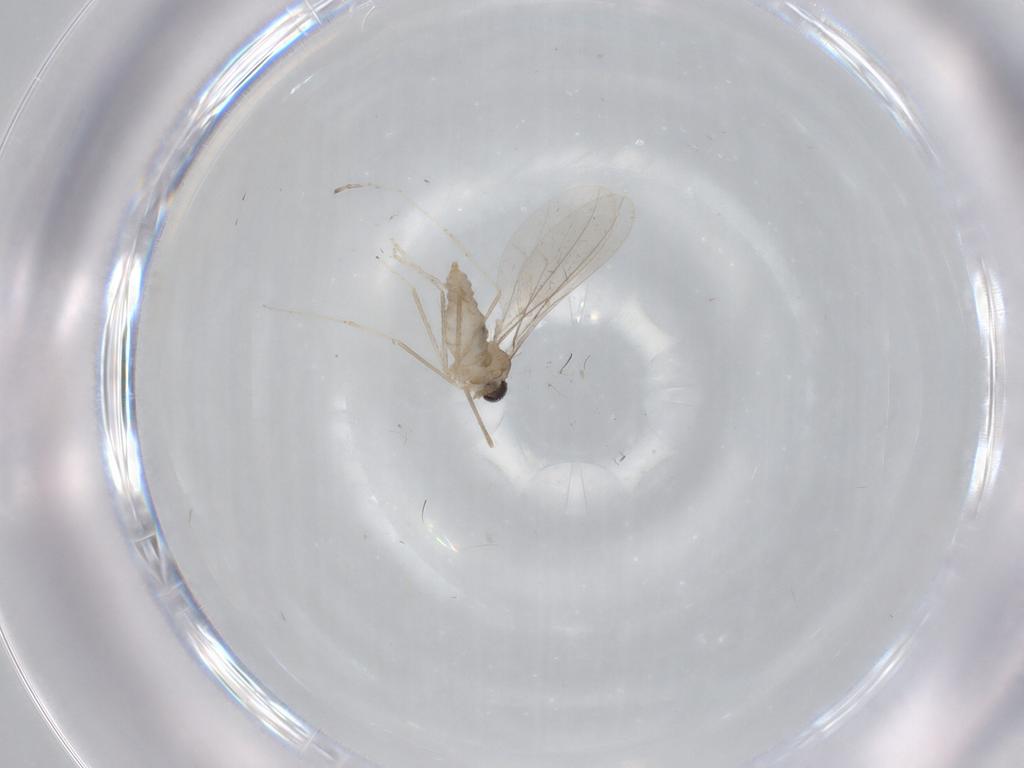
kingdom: Animalia
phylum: Arthropoda
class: Insecta
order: Diptera
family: Cecidomyiidae
